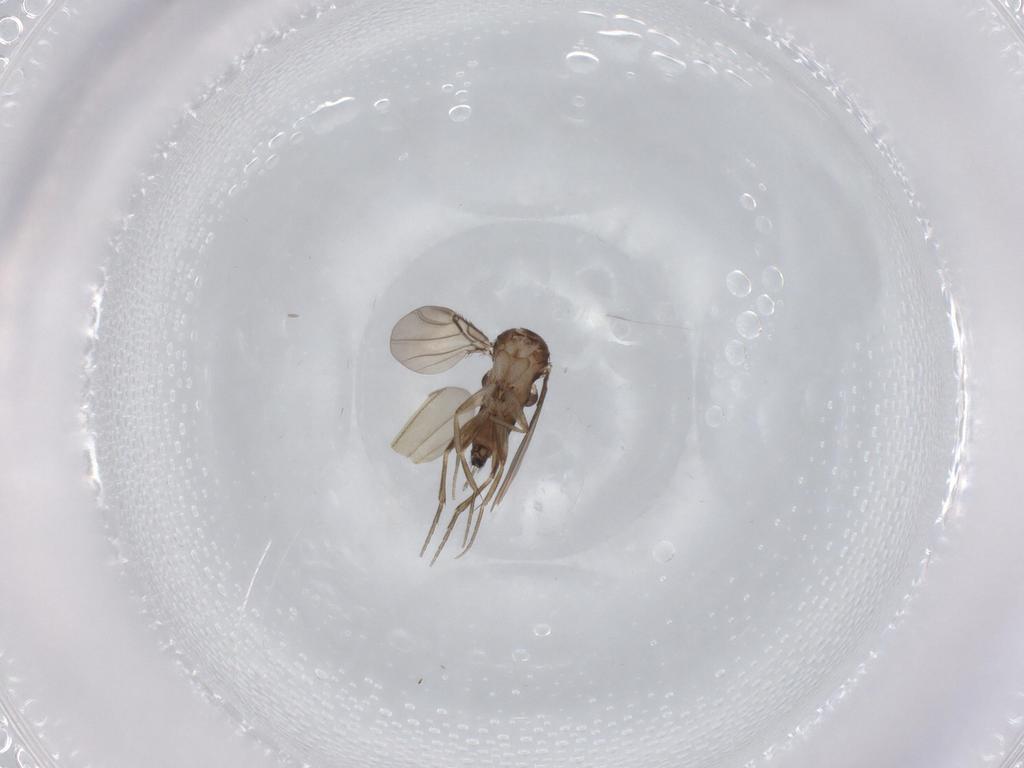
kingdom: Animalia
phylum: Arthropoda
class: Insecta
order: Diptera
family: Phoridae
